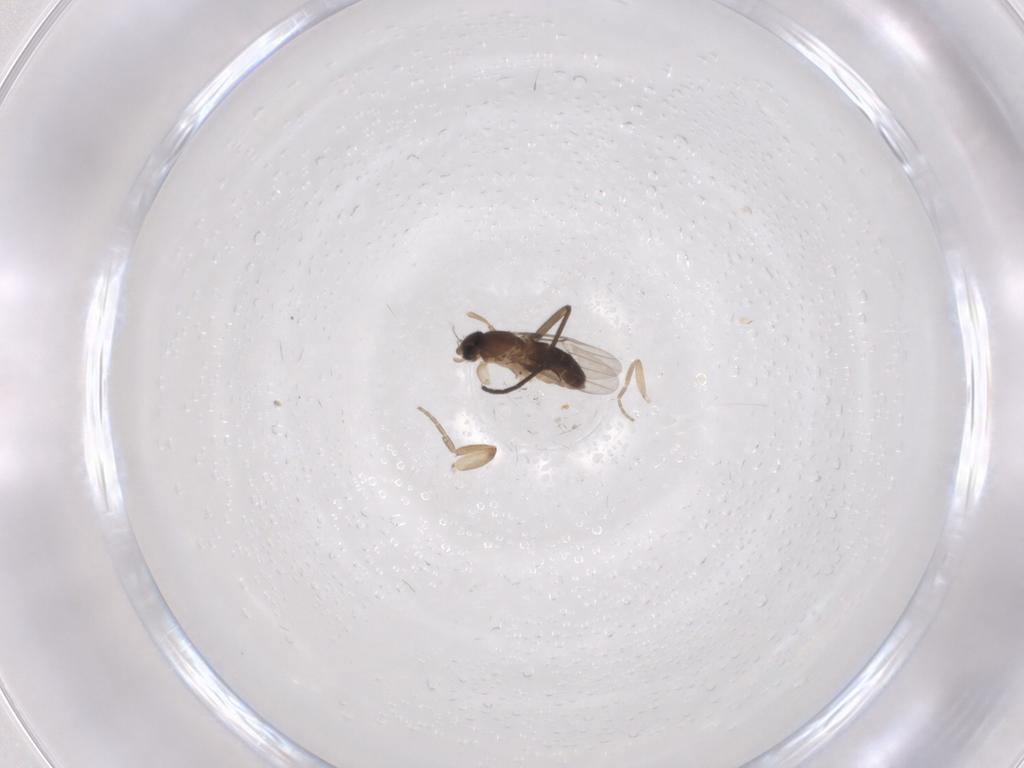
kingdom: Animalia
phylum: Arthropoda
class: Insecta
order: Diptera
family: Phoridae
